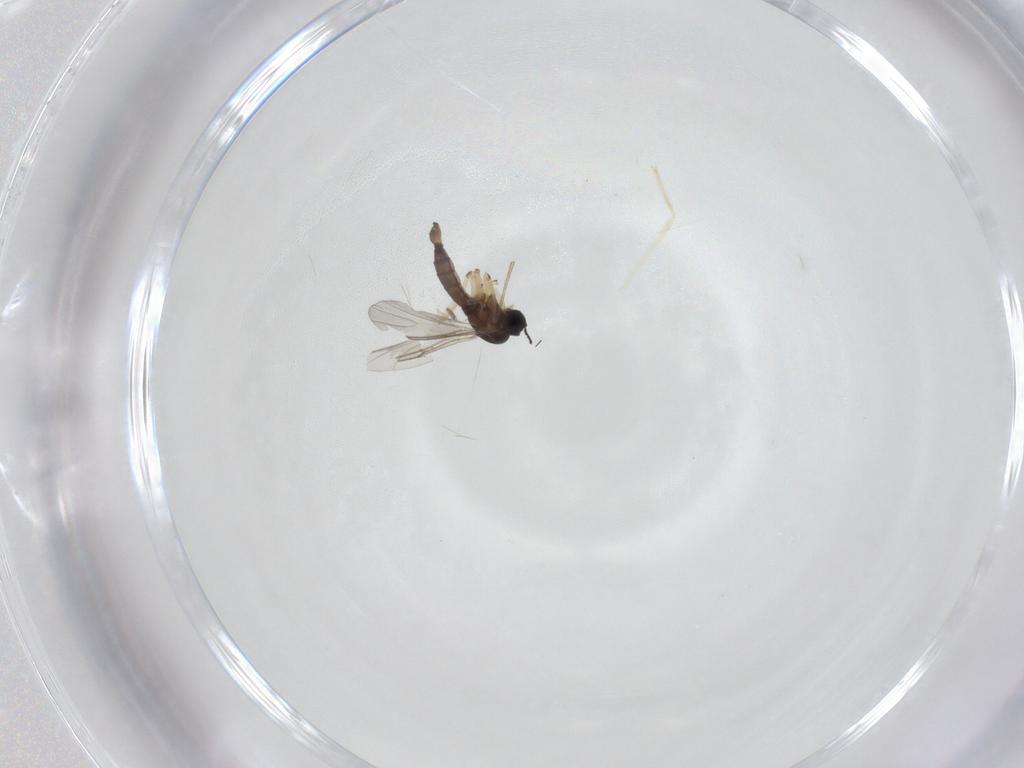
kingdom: Animalia
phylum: Arthropoda
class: Insecta
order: Diptera
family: Sciaridae
